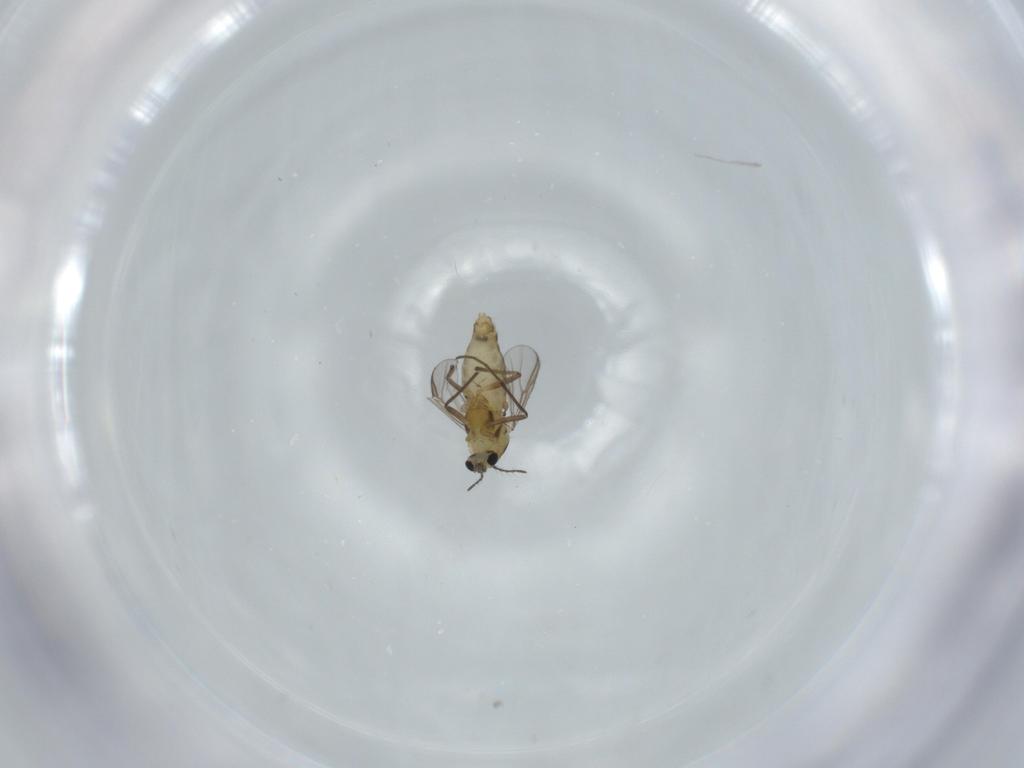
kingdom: Animalia
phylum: Arthropoda
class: Insecta
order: Diptera
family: Chironomidae
